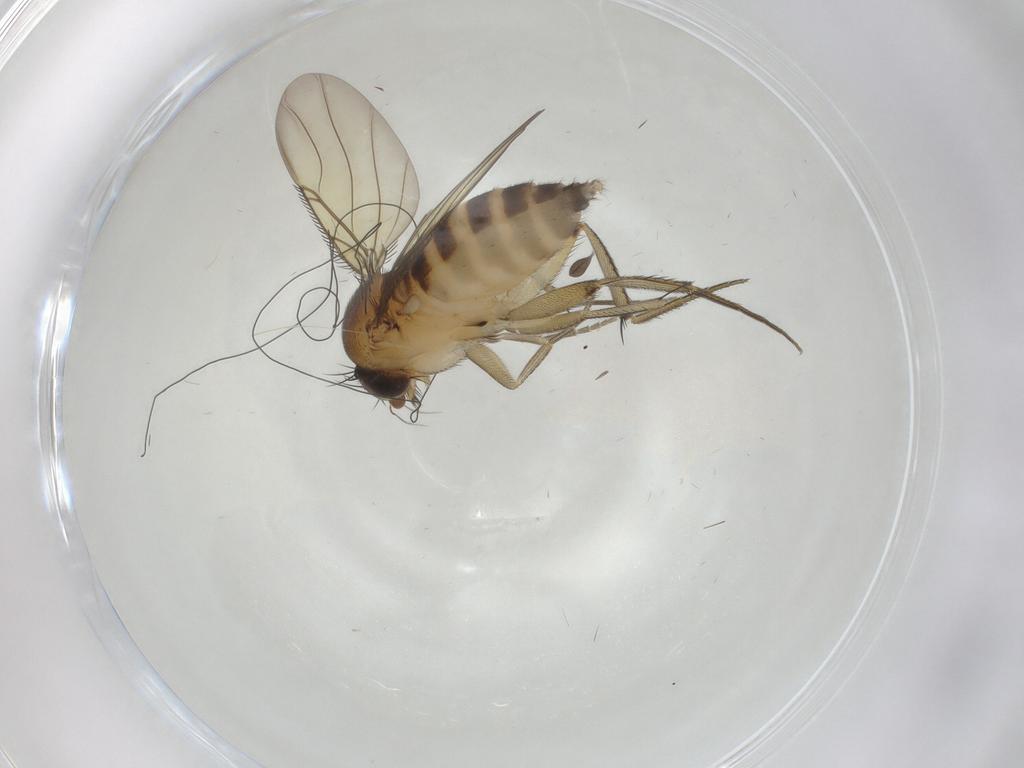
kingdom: Animalia
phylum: Arthropoda
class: Insecta
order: Diptera
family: Phoridae
